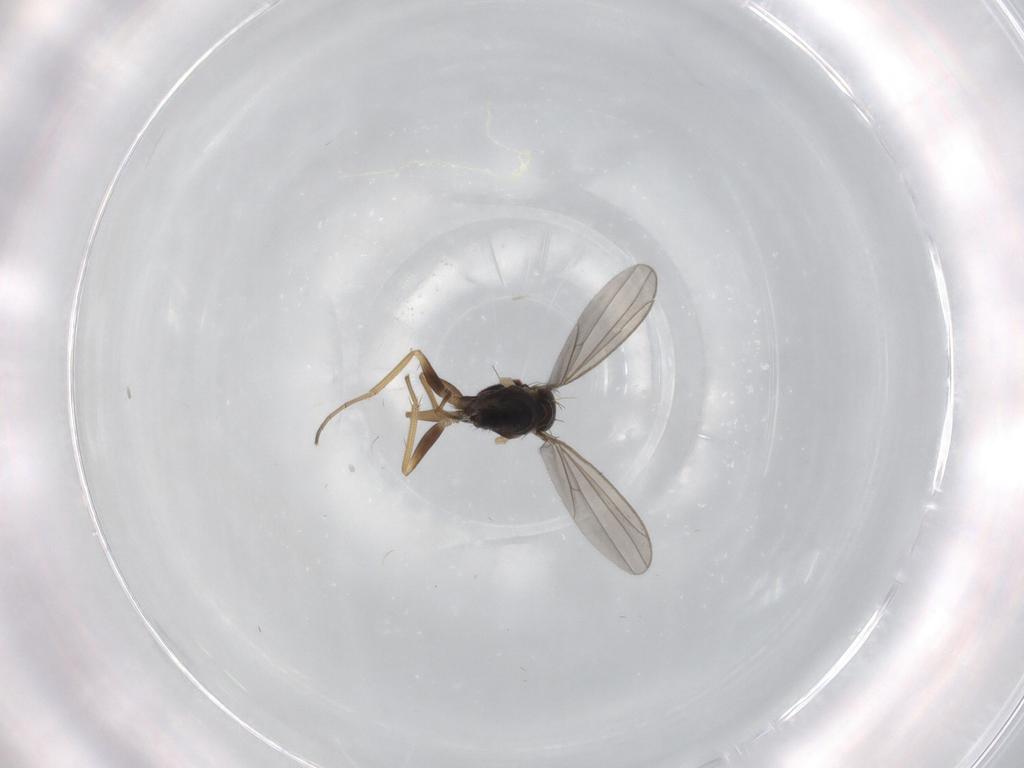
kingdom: Animalia
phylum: Arthropoda
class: Insecta
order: Diptera
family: Dolichopodidae
